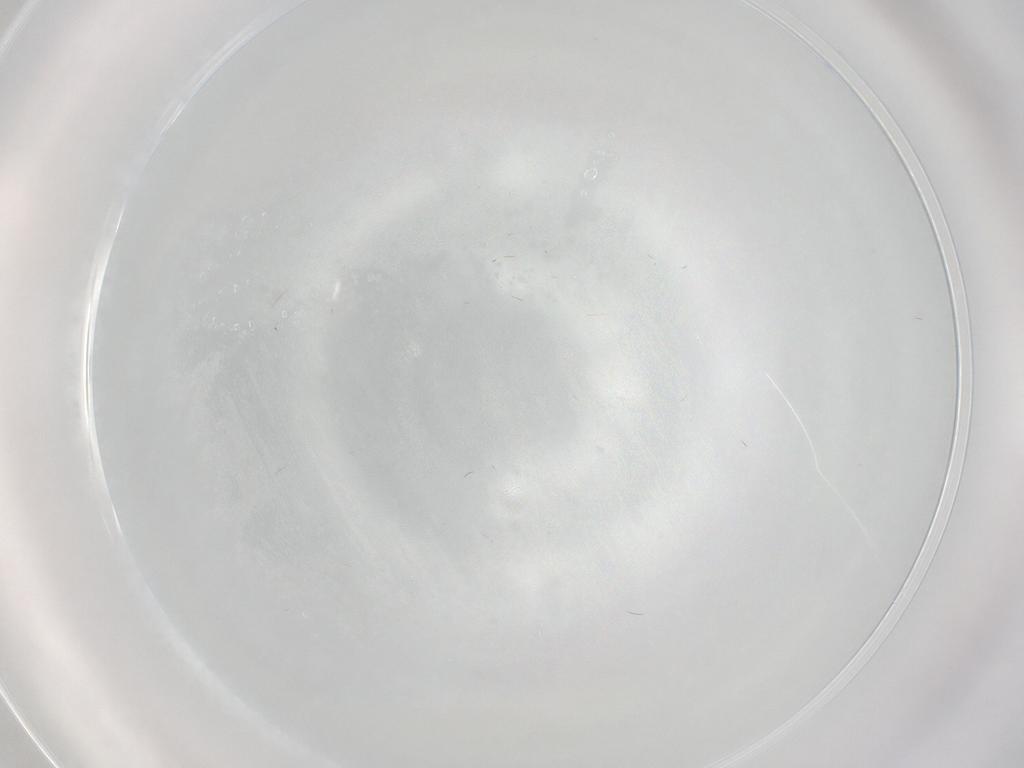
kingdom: Animalia
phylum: Arthropoda
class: Insecta
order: Diptera
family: Ceratopogonidae
